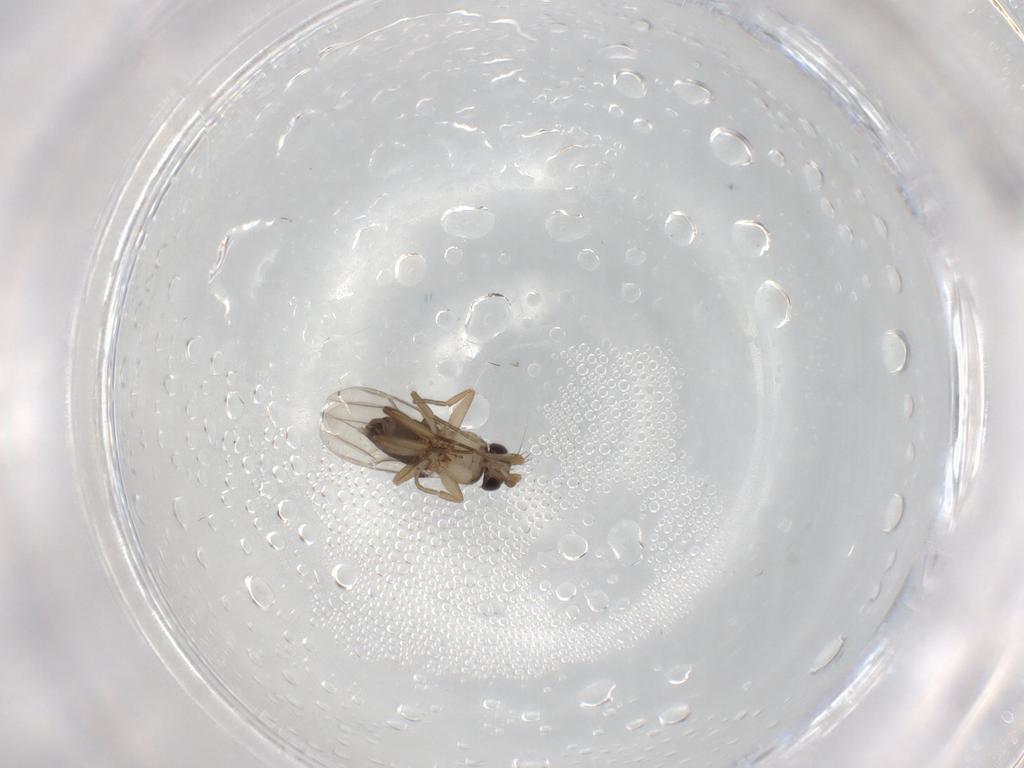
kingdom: Animalia
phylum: Arthropoda
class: Insecta
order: Diptera
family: Phoridae
